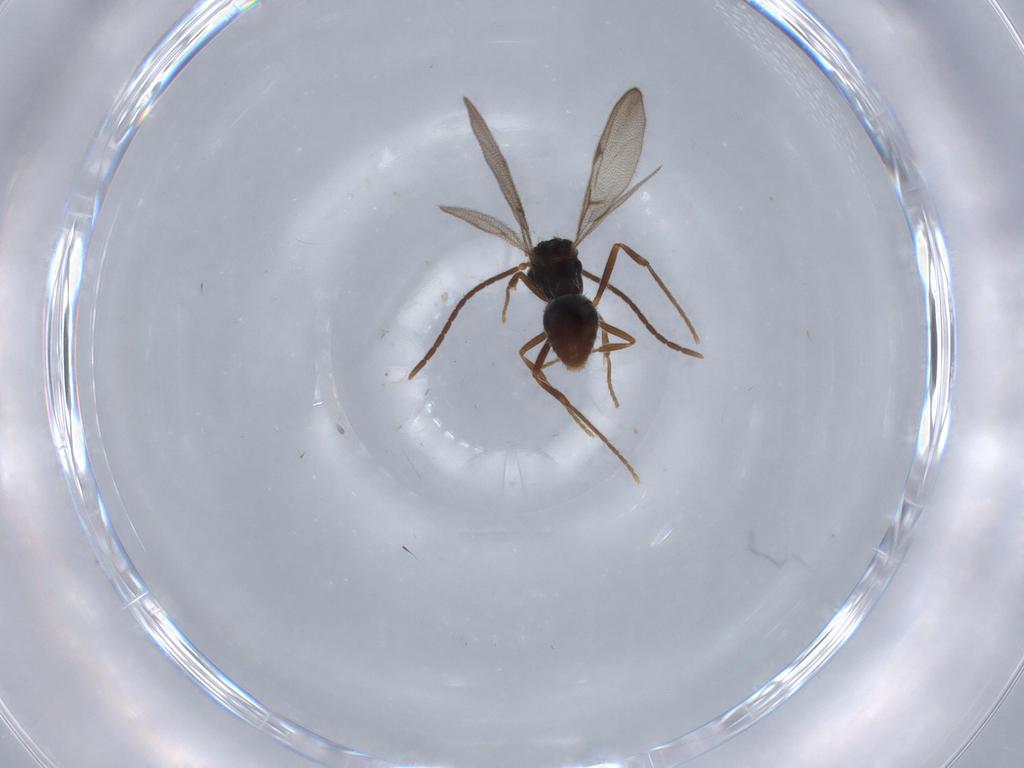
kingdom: Animalia
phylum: Arthropoda
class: Insecta
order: Hymenoptera
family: Formicidae
